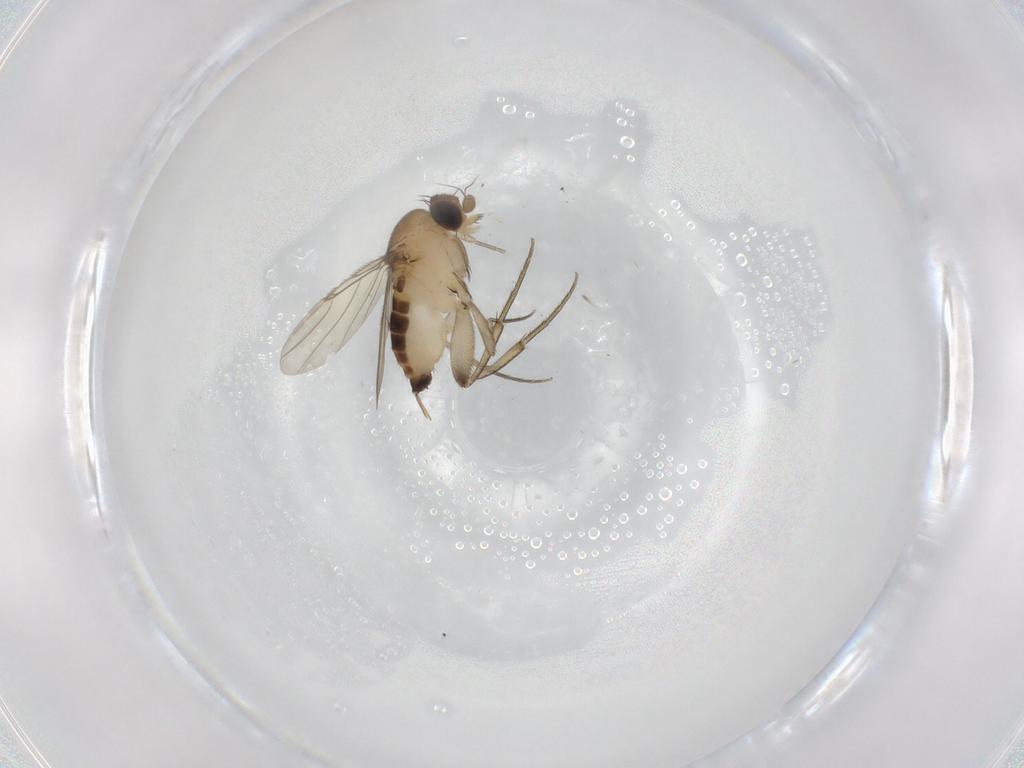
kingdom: Animalia
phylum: Arthropoda
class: Insecta
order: Diptera
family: Phoridae
